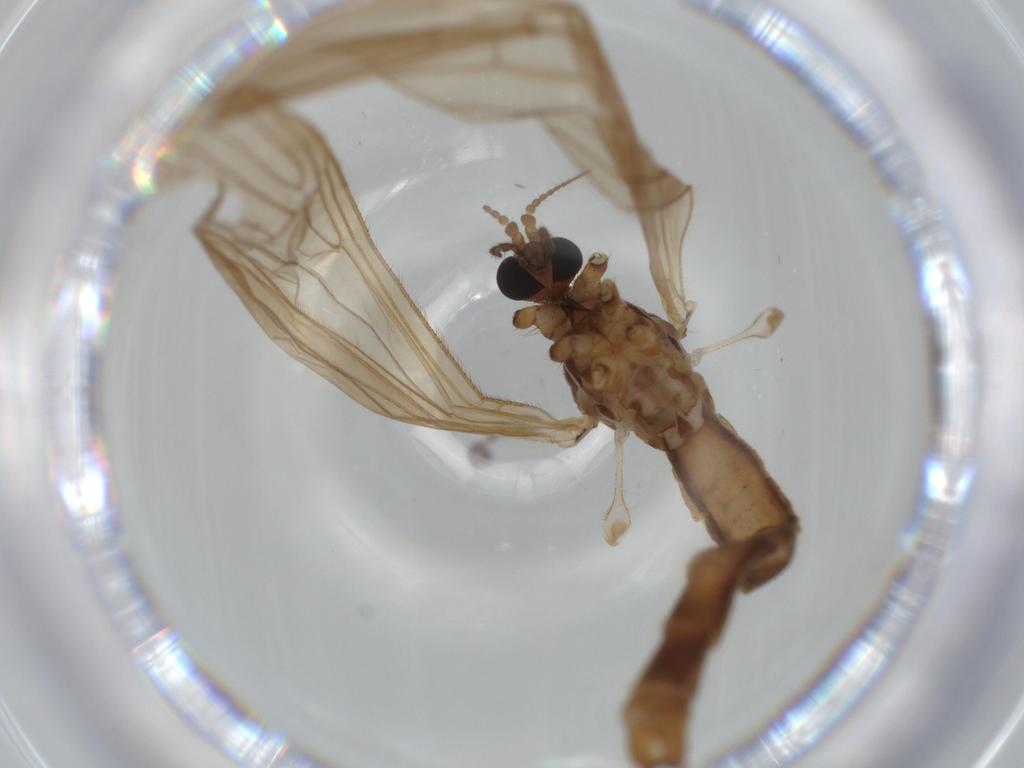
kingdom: Animalia
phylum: Arthropoda
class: Insecta
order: Diptera
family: Limoniidae
